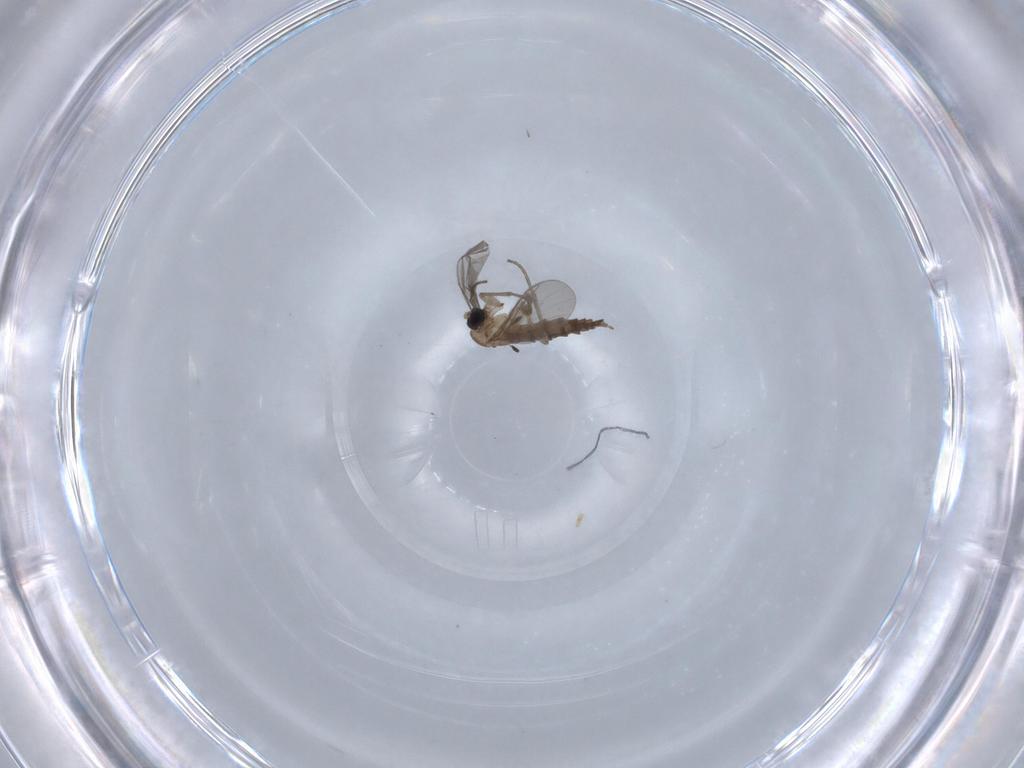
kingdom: Animalia
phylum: Arthropoda
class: Insecta
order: Diptera
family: Sciaridae
